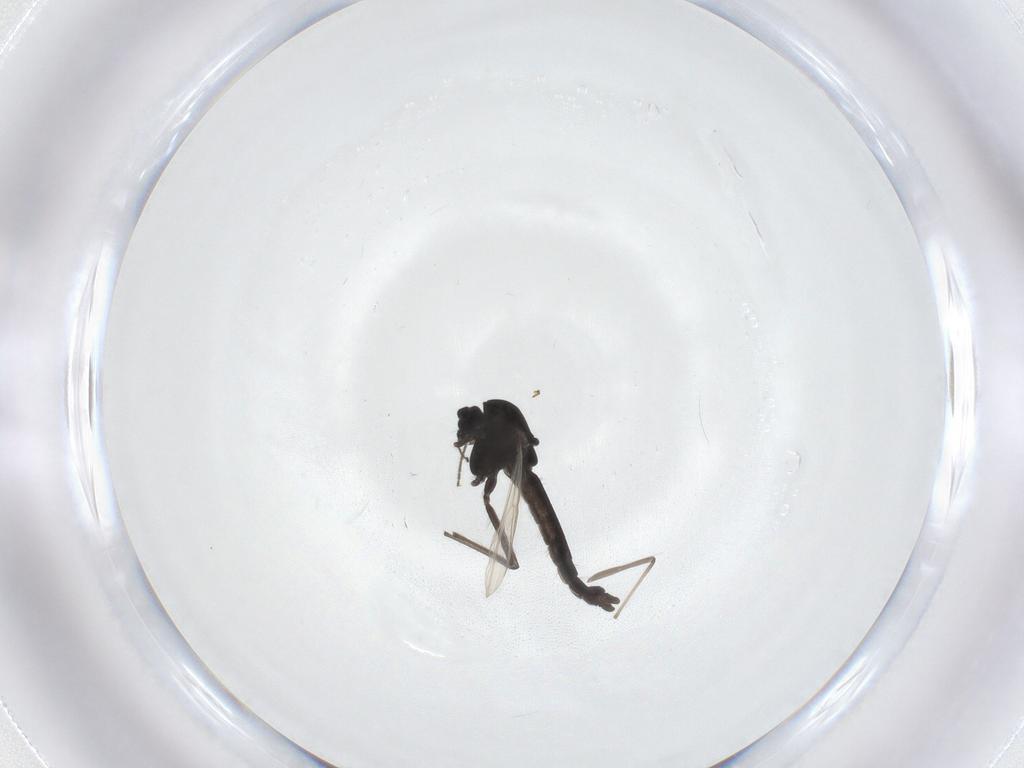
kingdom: Animalia
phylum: Arthropoda
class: Insecta
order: Diptera
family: Chironomidae
